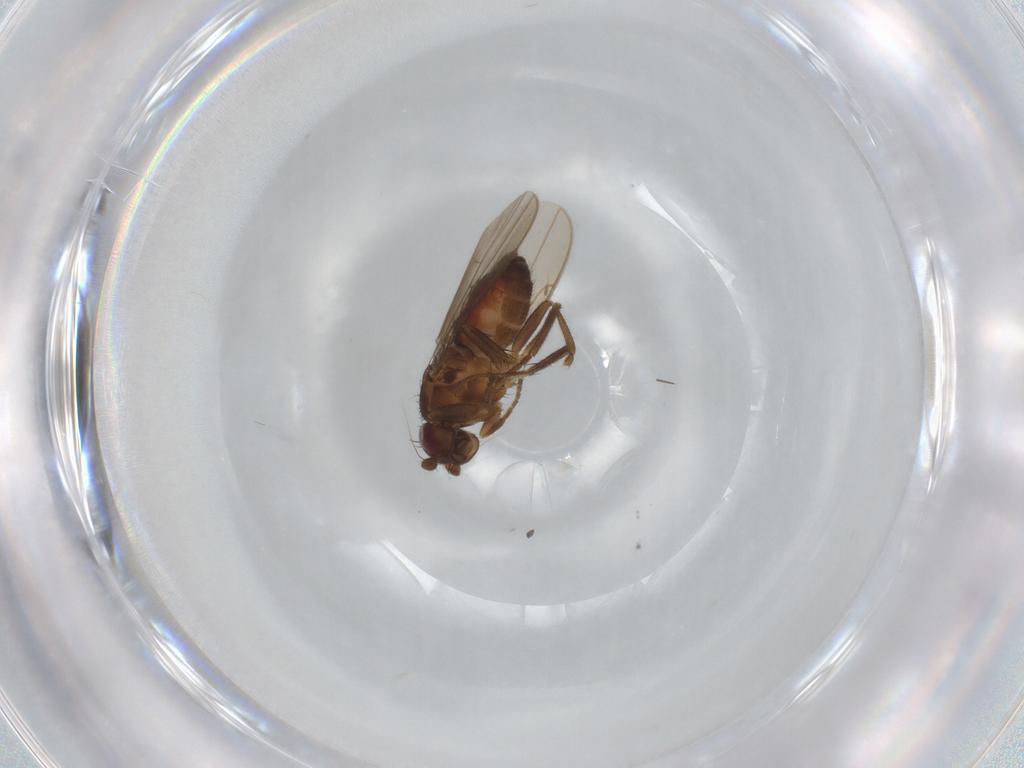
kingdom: Animalia
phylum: Arthropoda
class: Insecta
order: Diptera
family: Sphaeroceridae
